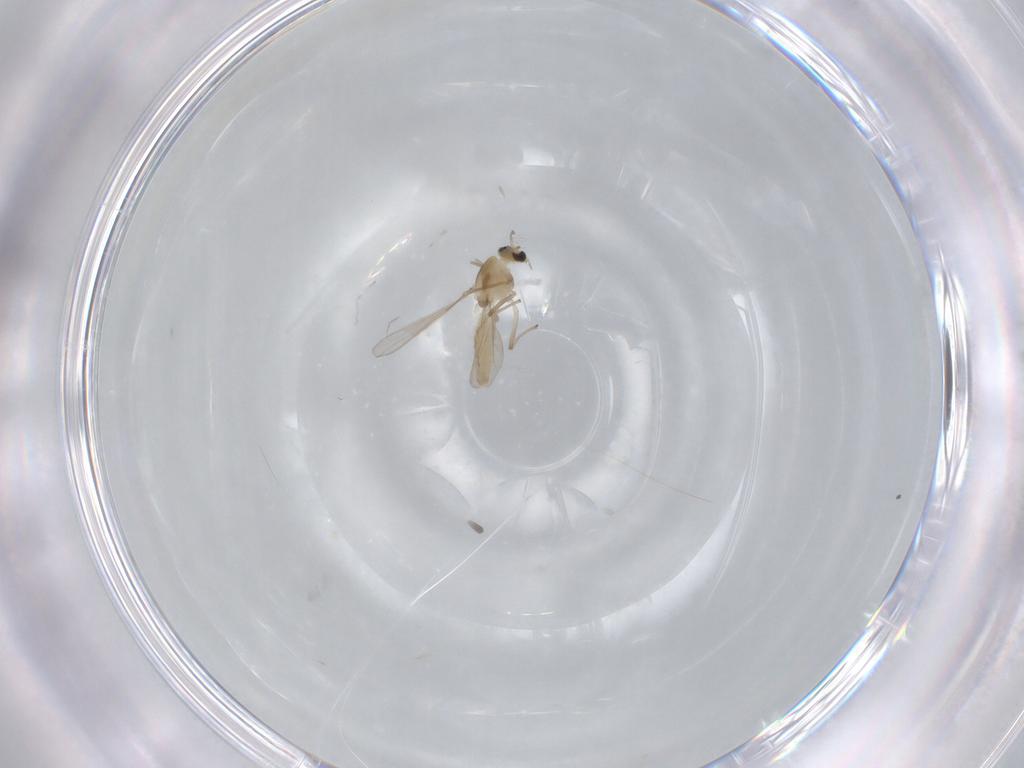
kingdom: Animalia
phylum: Arthropoda
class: Insecta
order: Diptera
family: Chironomidae
